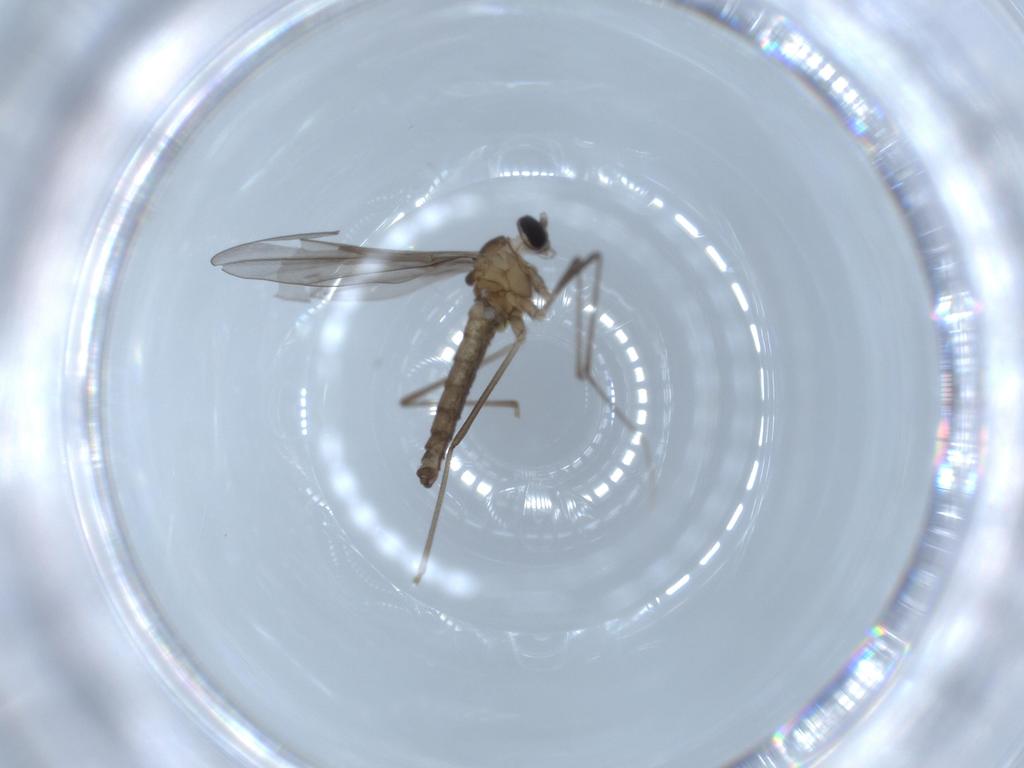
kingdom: Animalia
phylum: Arthropoda
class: Insecta
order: Diptera
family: Cecidomyiidae
